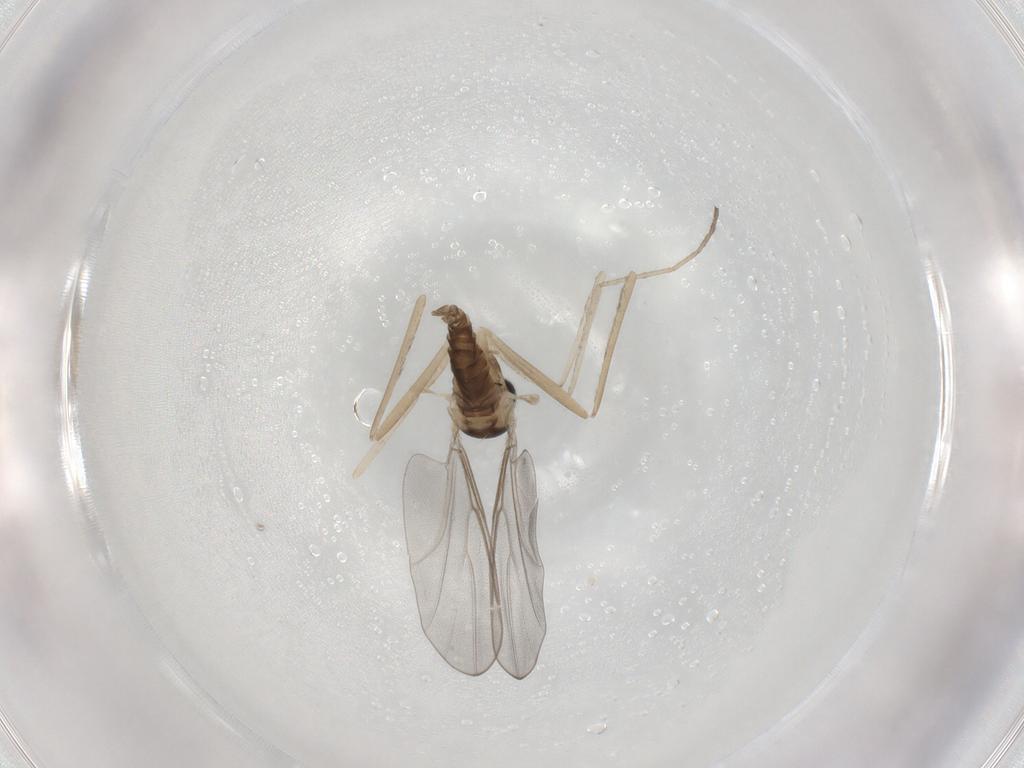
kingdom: Animalia
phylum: Arthropoda
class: Insecta
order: Diptera
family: Cecidomyiidae
